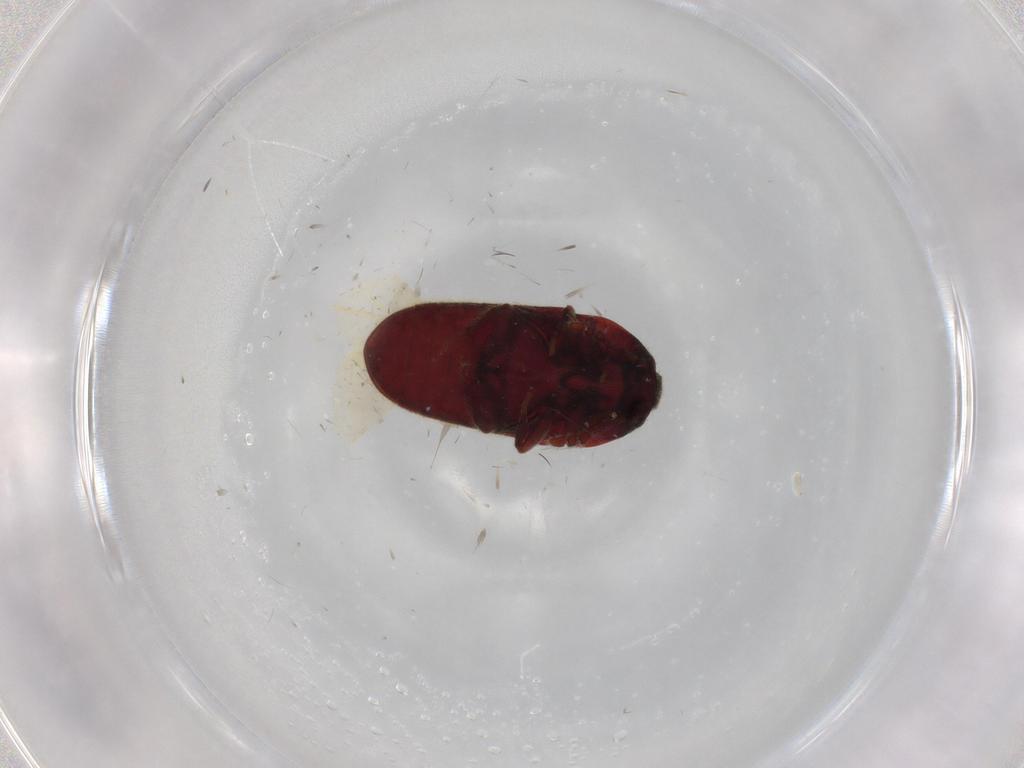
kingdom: Animalia
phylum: Arthropoda
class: Insecta
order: Coleoptera
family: Throscidae
